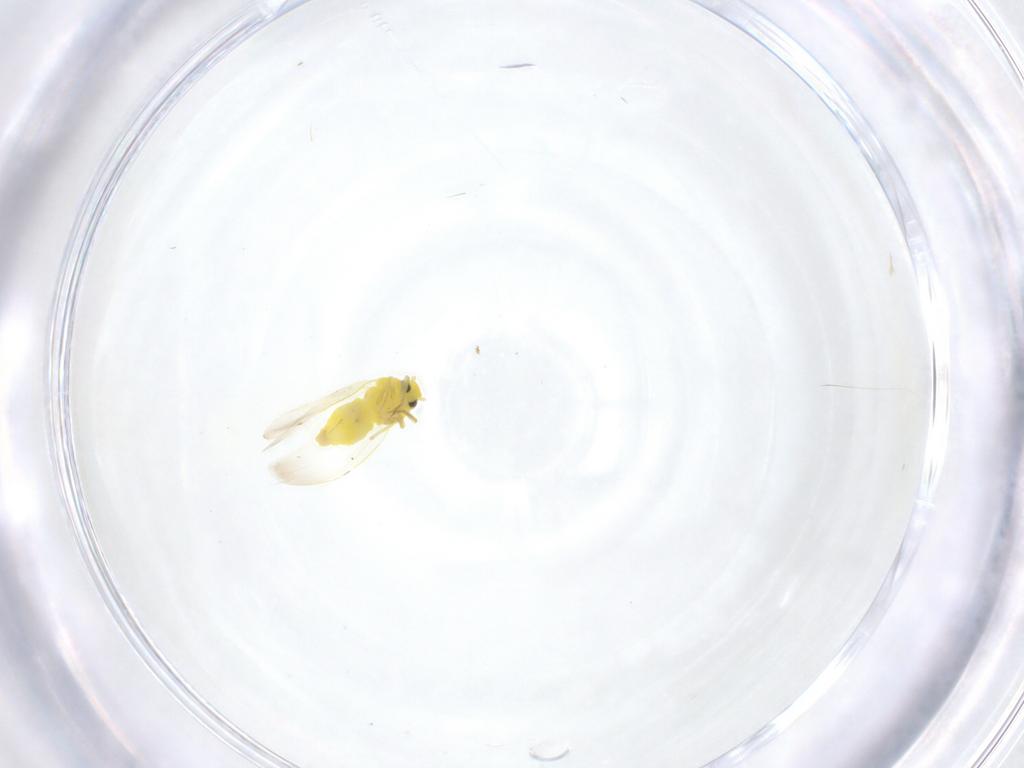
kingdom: Animalia
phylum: Arthropoda
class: Insecta
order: Hemiptera
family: Aleyrodidae
